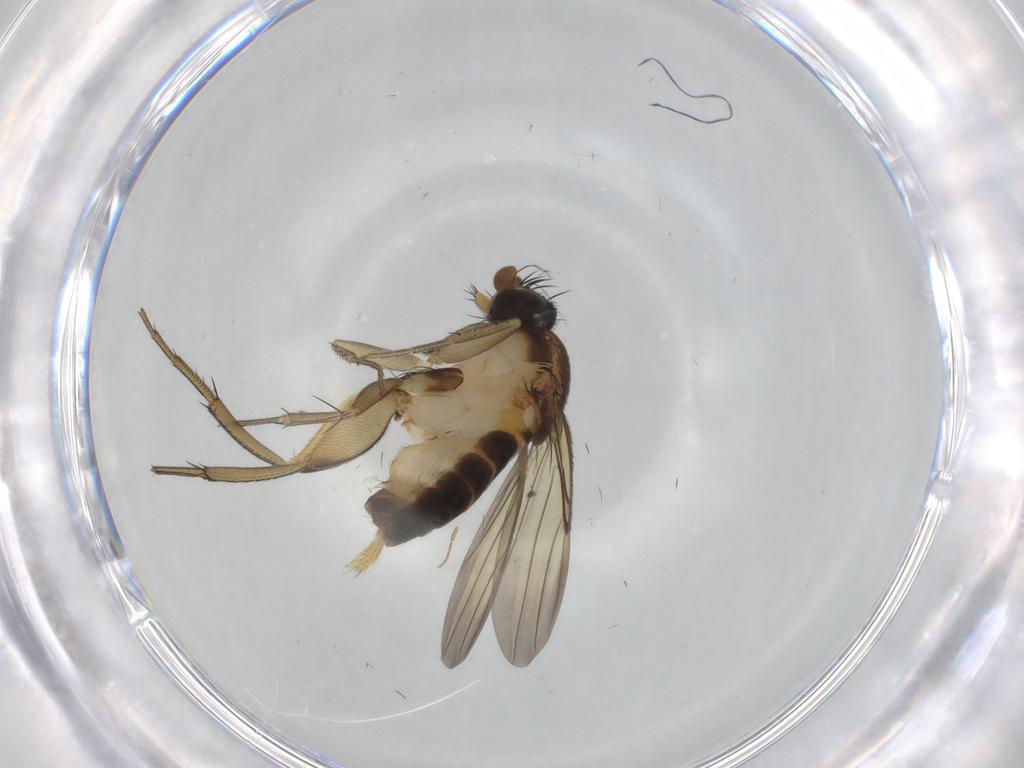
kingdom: Animalia
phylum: Arthropoda
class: Insecta
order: Diptera
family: Phoridae
